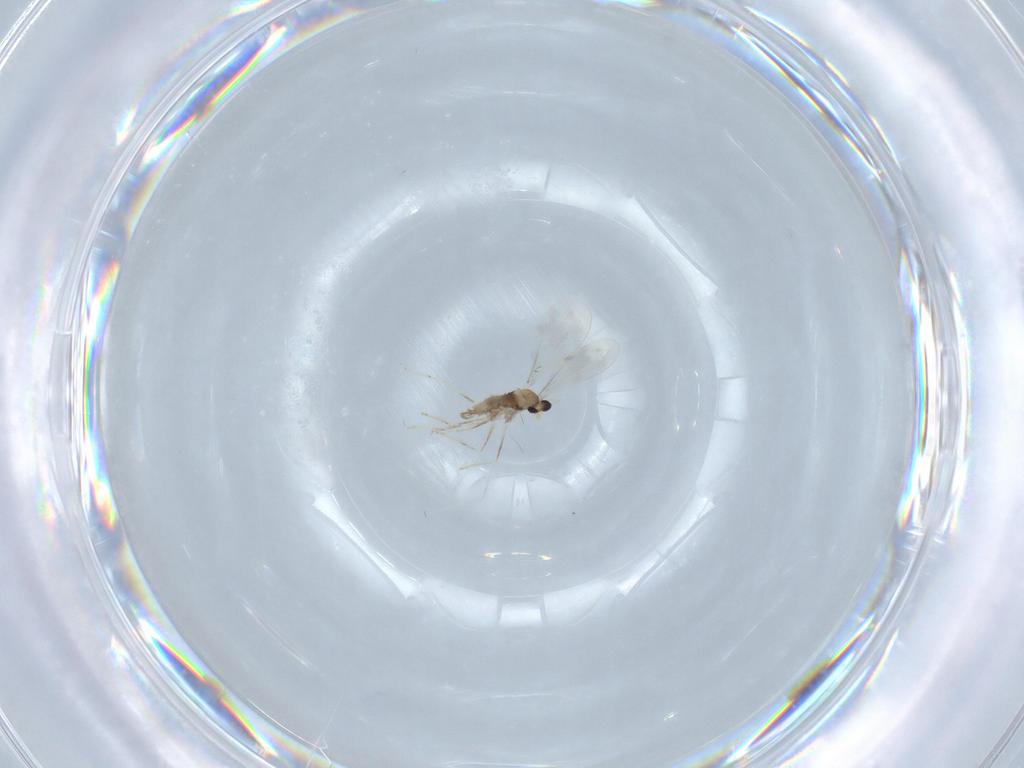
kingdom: Animalia
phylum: Arthropoda
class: Insecta
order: Diptera
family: Cecidomyiidae
